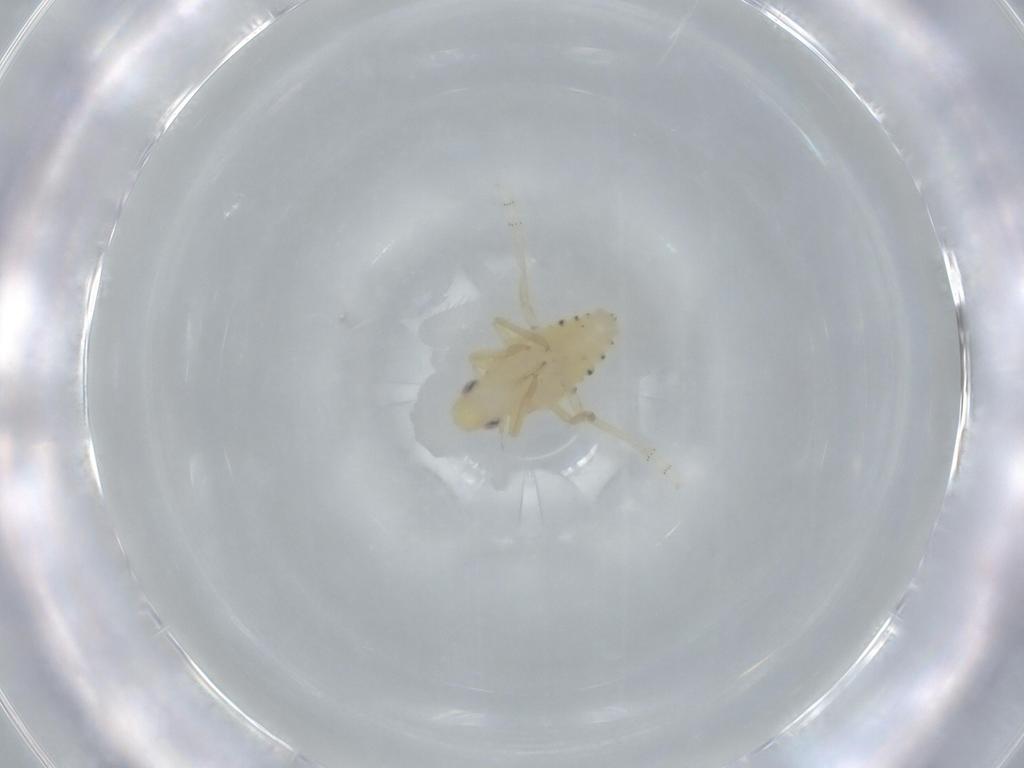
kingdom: Animalia
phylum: Arthropoda
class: Insecta
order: Hemiptera
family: Tropiduchidae
